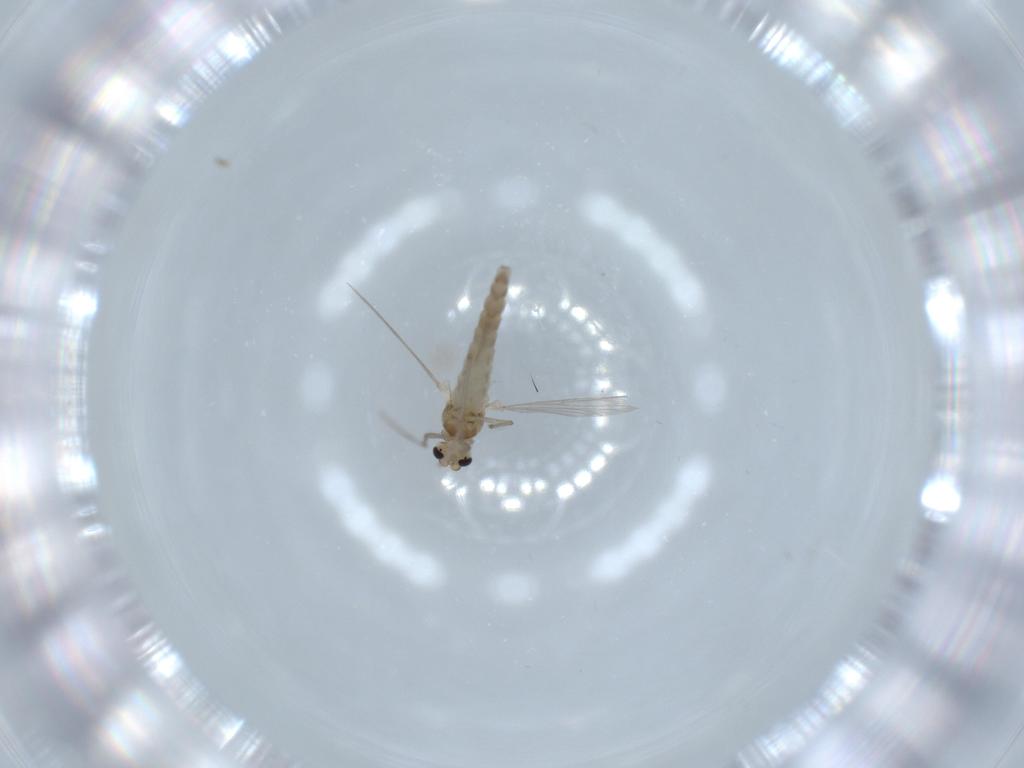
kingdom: Animalia
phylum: Arthropoda
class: Insecta
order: Diptera
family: Chironomidae
